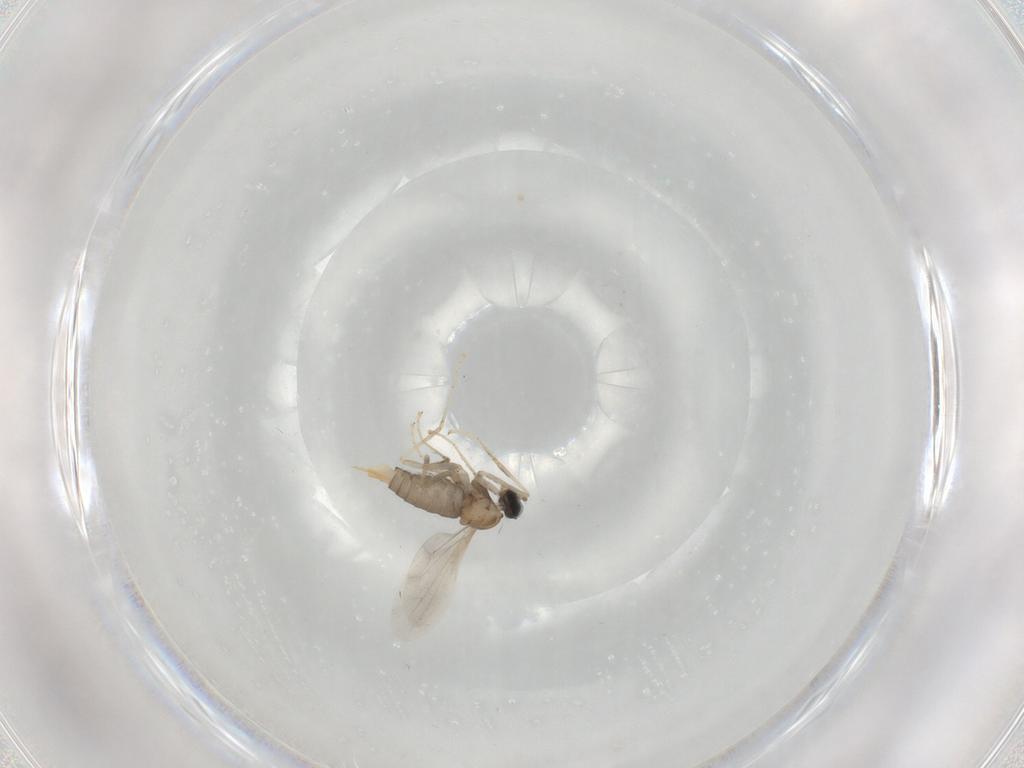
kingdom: Animalia
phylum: Arthropoda
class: Insecta
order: Diptera
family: Cecidomyiidae
